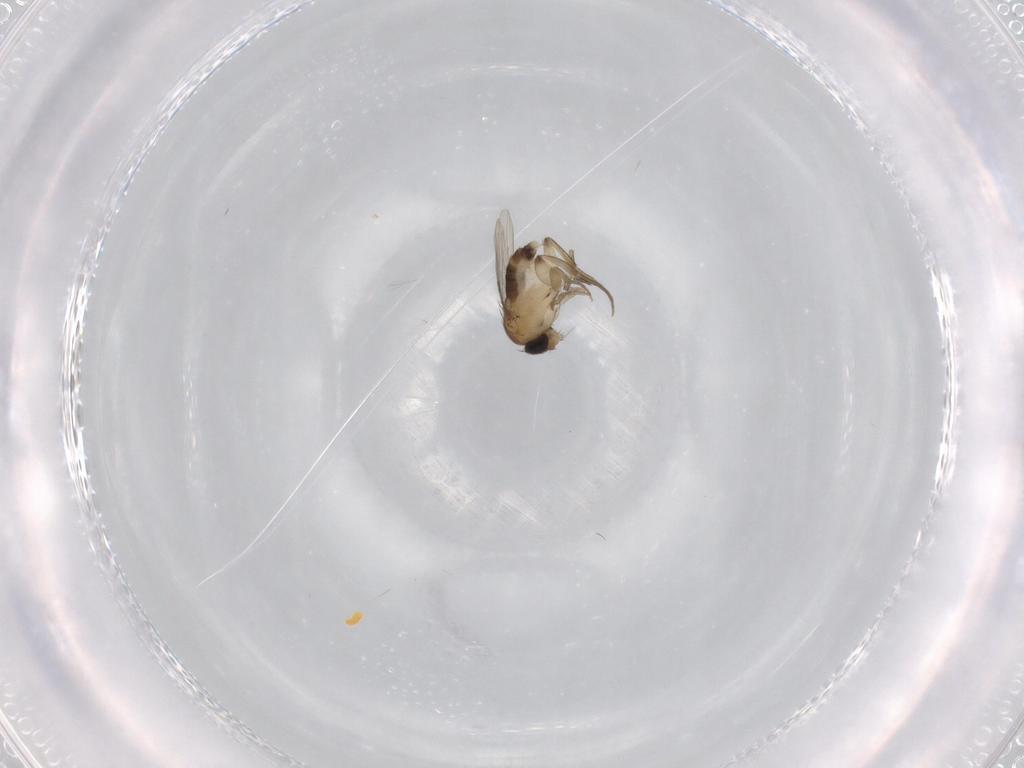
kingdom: Animalia
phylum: Arthropoda
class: Insecta
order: Diptera
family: Phoridae
